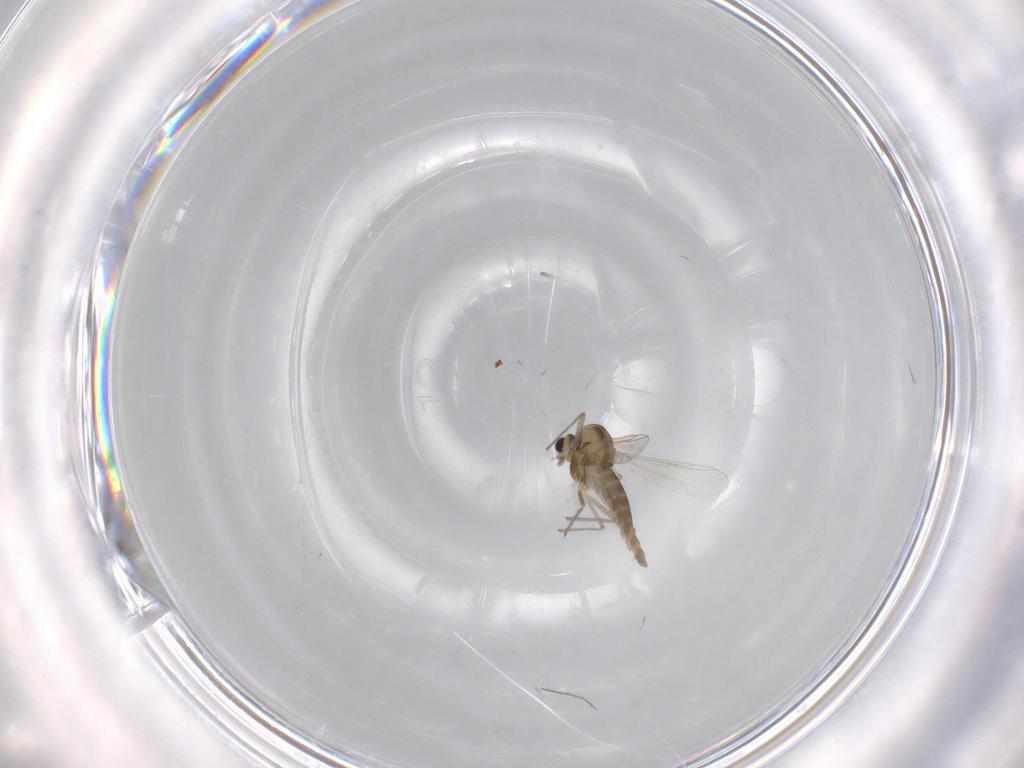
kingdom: Animalia
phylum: Arthropoda
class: Insecta
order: Diptera
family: Chironomidae
